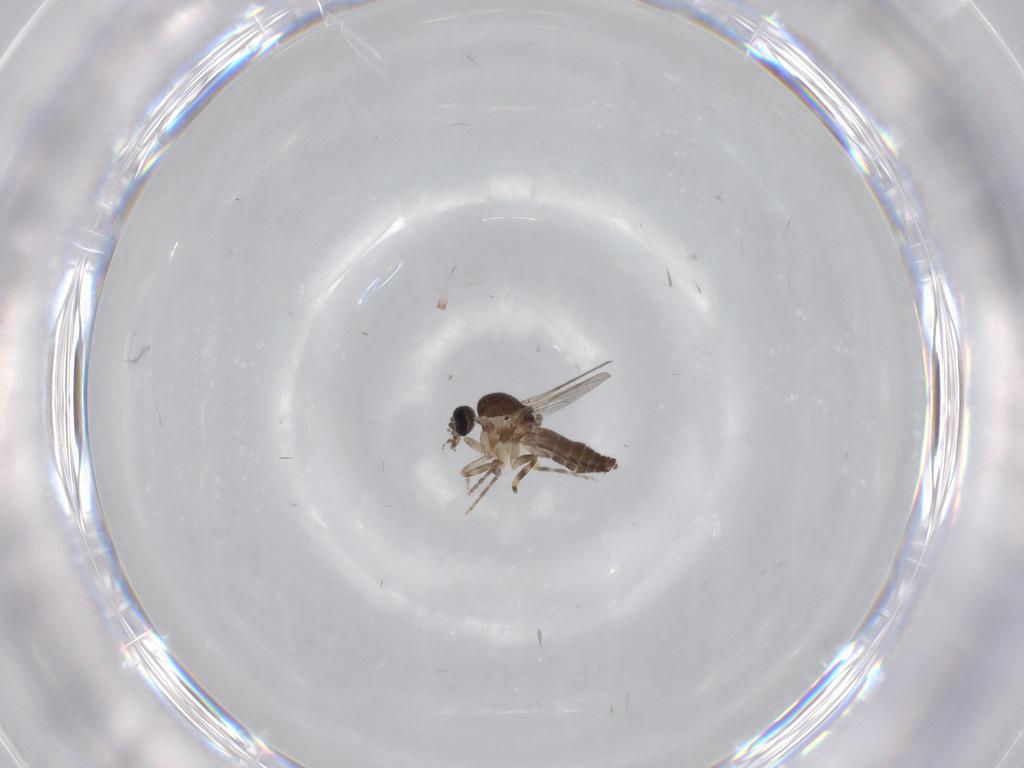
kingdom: Animalia
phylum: Arthropoda
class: Insecta
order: Diptera
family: Ceratopogonidae
